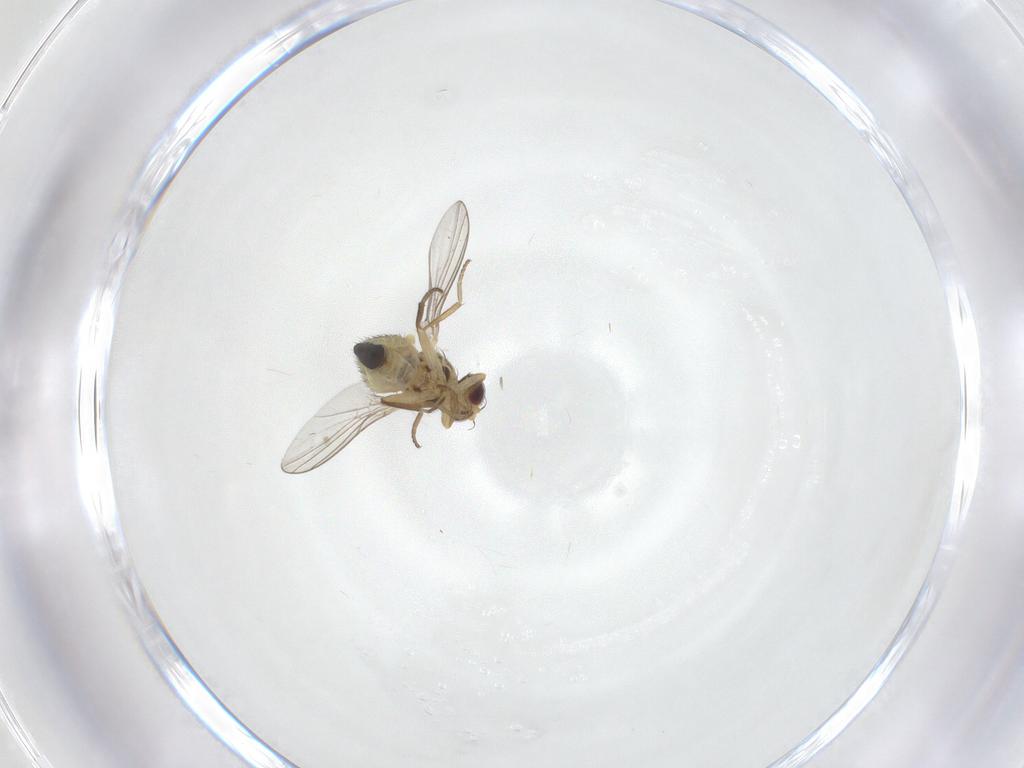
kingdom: Animalia
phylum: Arthropoda
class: Insecta
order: Diptera
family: Agromyzidae
